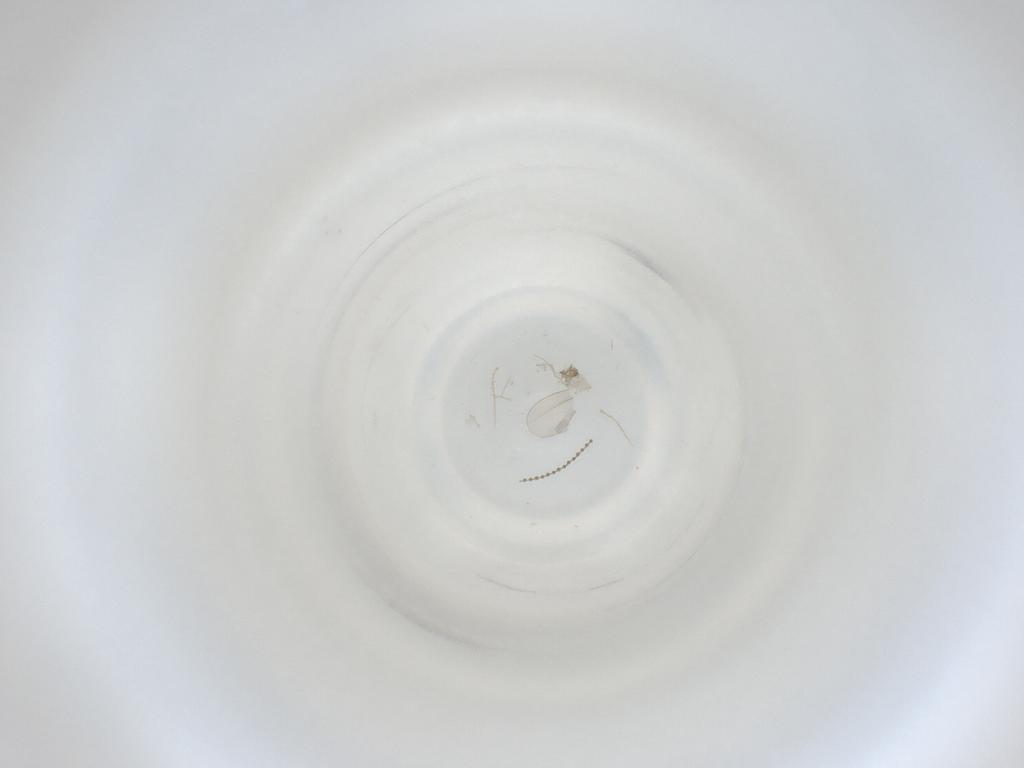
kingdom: Animalia
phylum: Arthropoda
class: Insecta
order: Diptera
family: Cecidomyiidae
